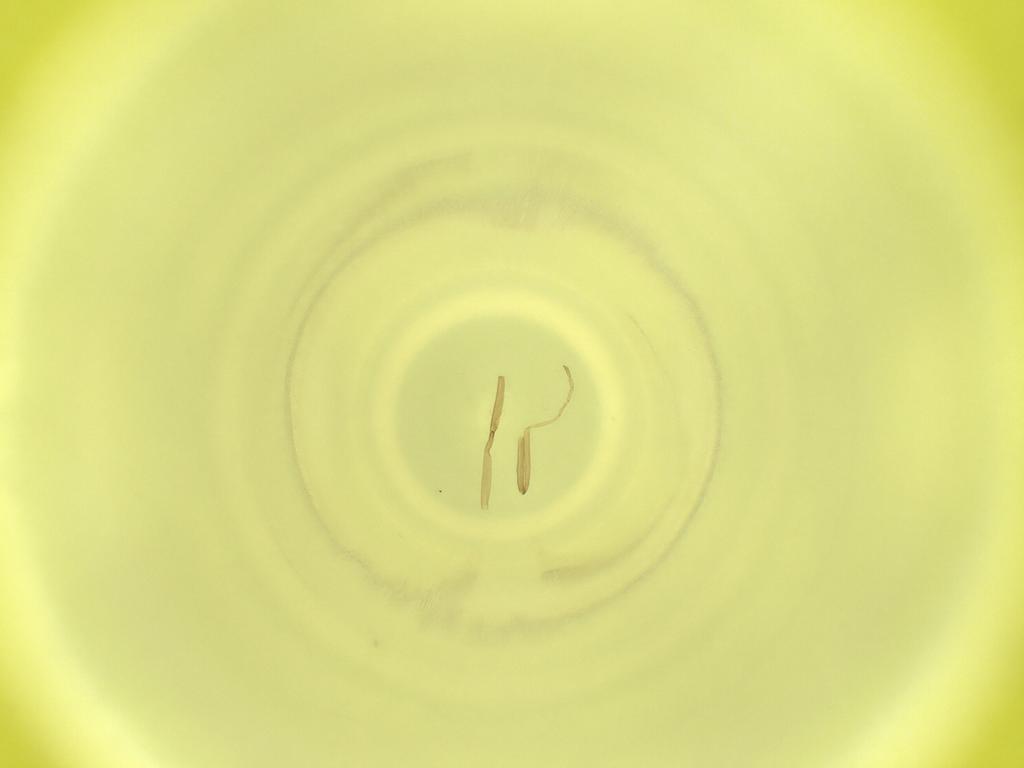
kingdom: Animalia
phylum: Arthropoda
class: Insecta
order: Diptera
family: Cecidomyiidae
